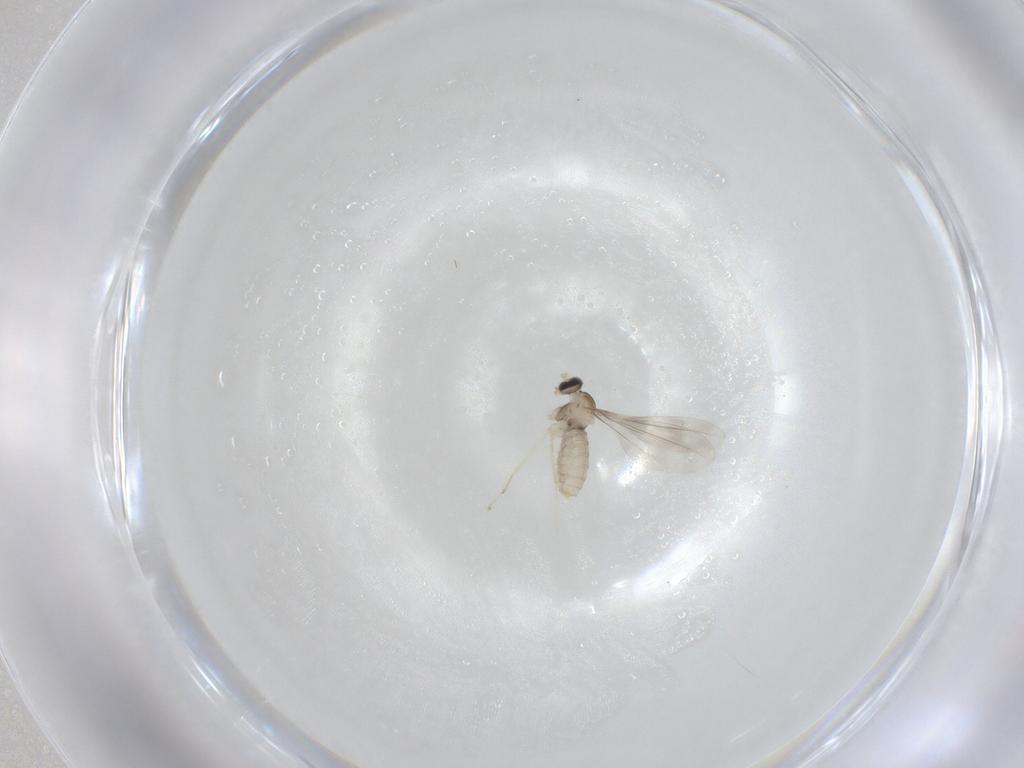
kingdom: Animalia
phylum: Arthropoda
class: Insecta
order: Diptera
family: Cecidomyiidae
